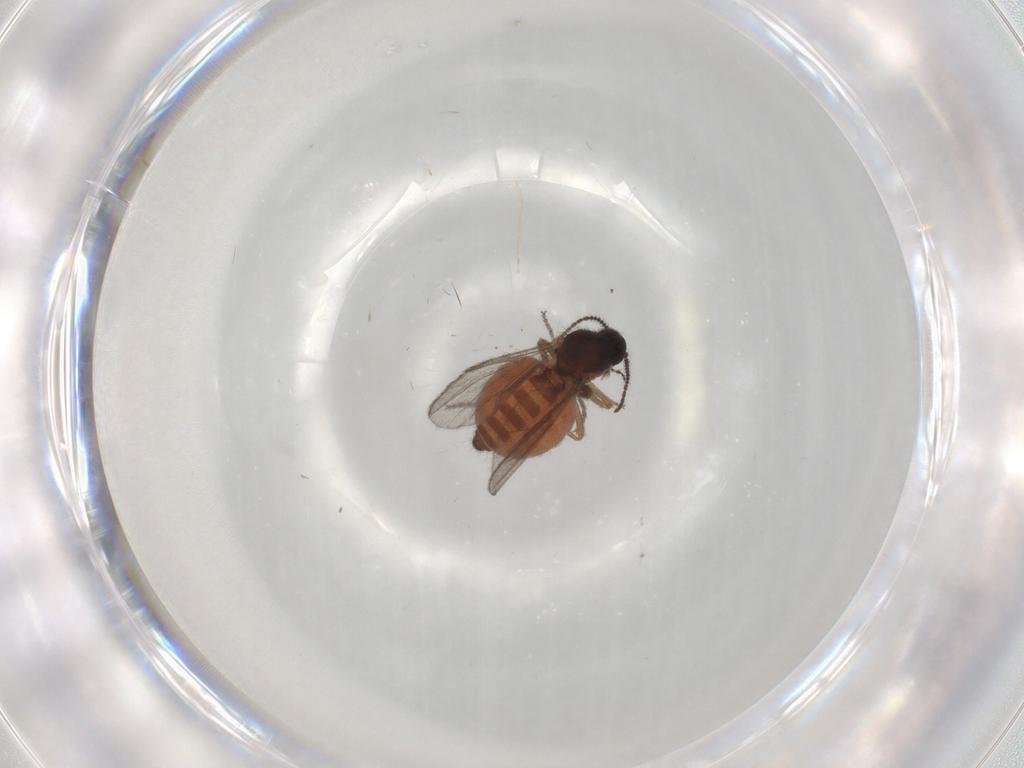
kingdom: Animalia
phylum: Arthropoda
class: Insecta
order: Diptera
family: Ceratopogonidae
